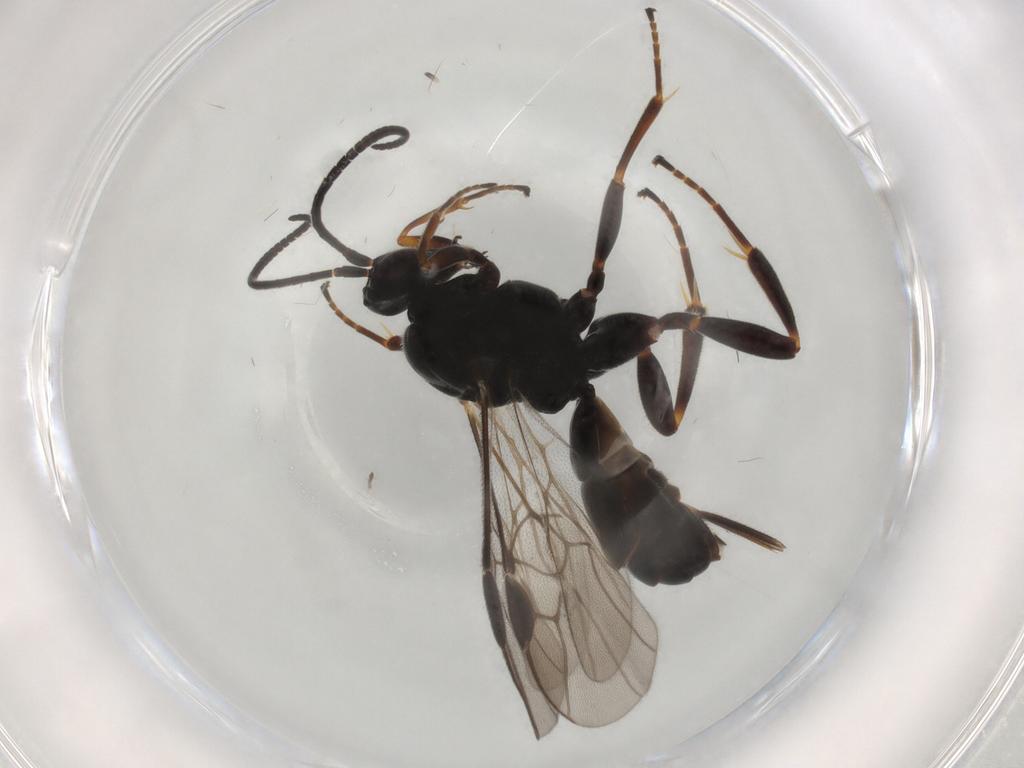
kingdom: Animalia
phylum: Arthropoda
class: Insecta
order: Hymenoptera
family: Braconidae
